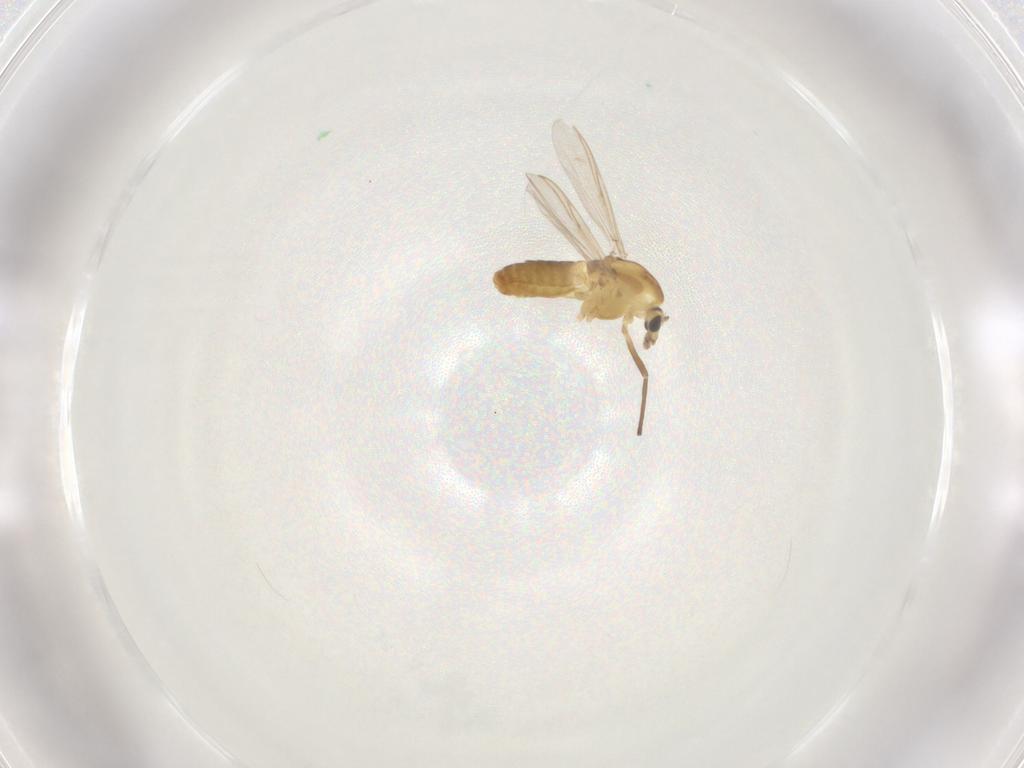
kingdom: Animalia
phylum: Arthropoda
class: Insecta
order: Diptera
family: Chironomidae
